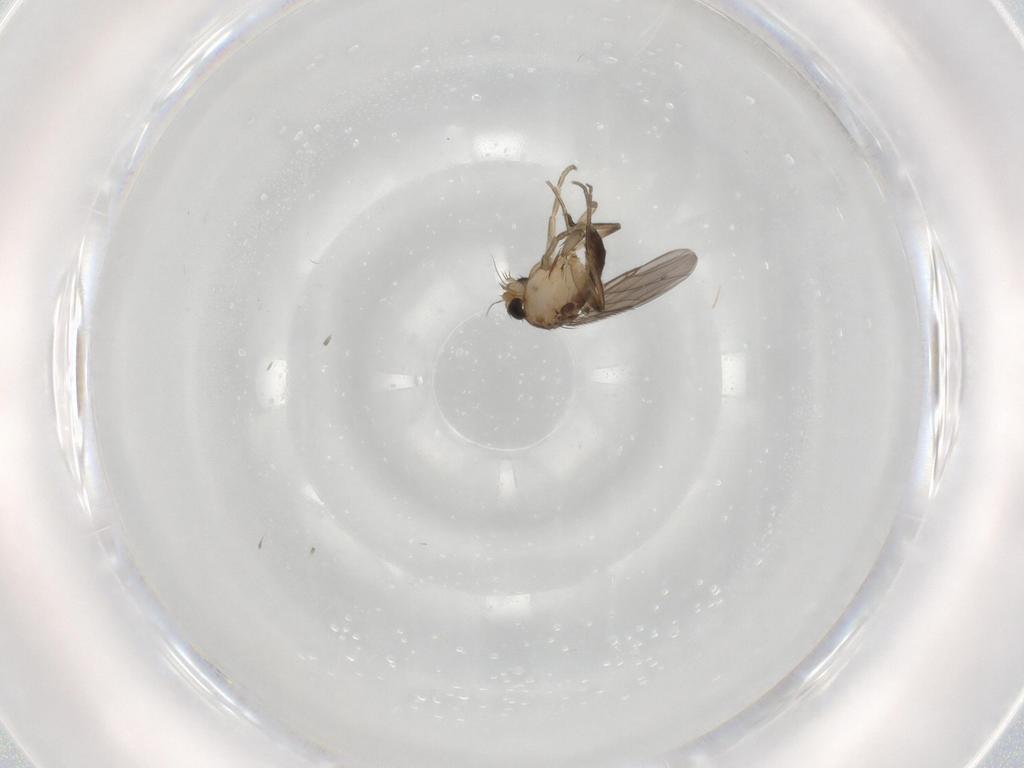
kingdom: Animalia
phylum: Arthropoda
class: Insecta
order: Diptera
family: Phoridae
